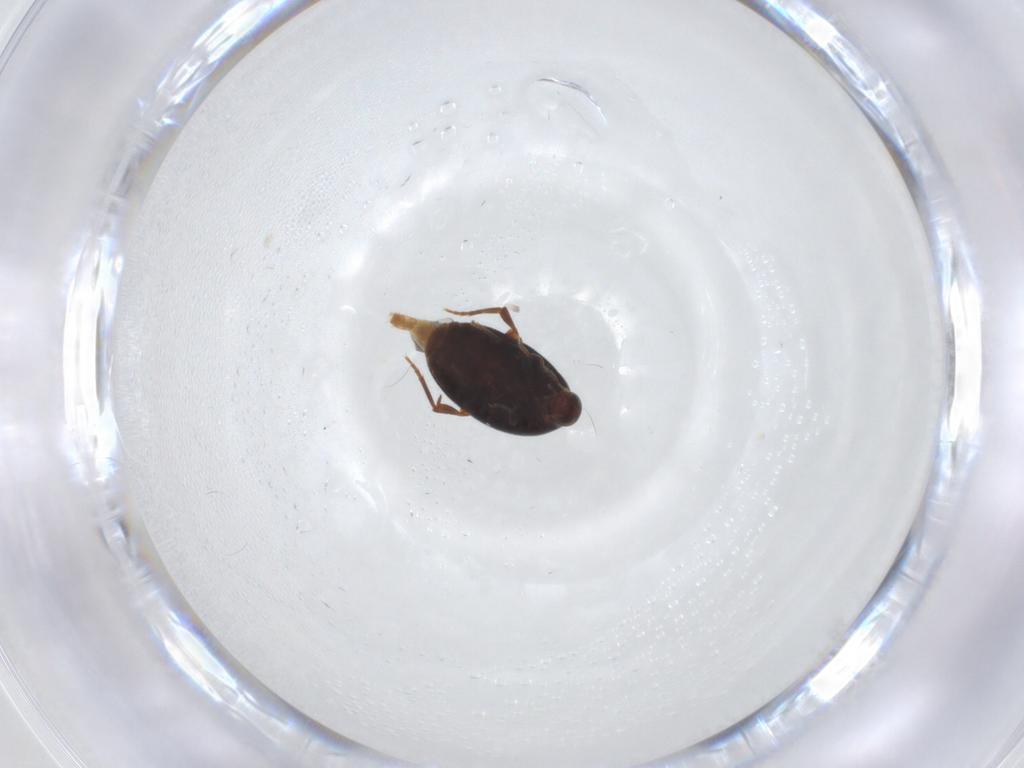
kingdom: Animalia
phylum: Arthropoda
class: Insecta
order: Coleoptera
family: Melandryidae
